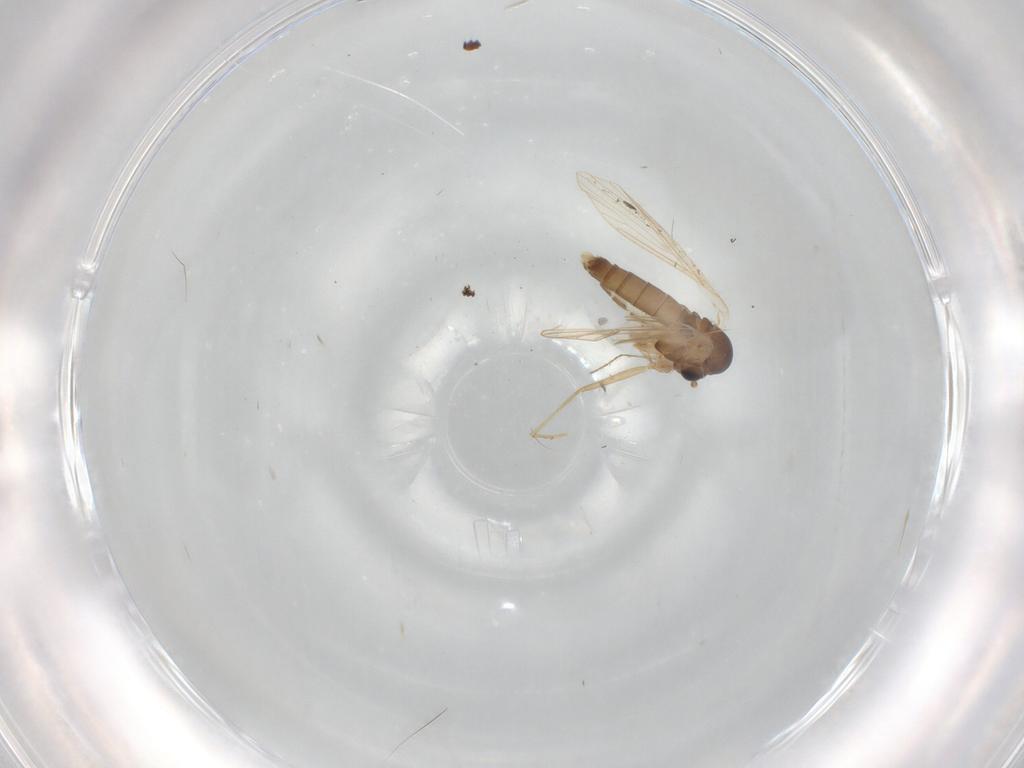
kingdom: Animalia
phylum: Arthropoda
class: Insecta
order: Diptera
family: Psychodidae
